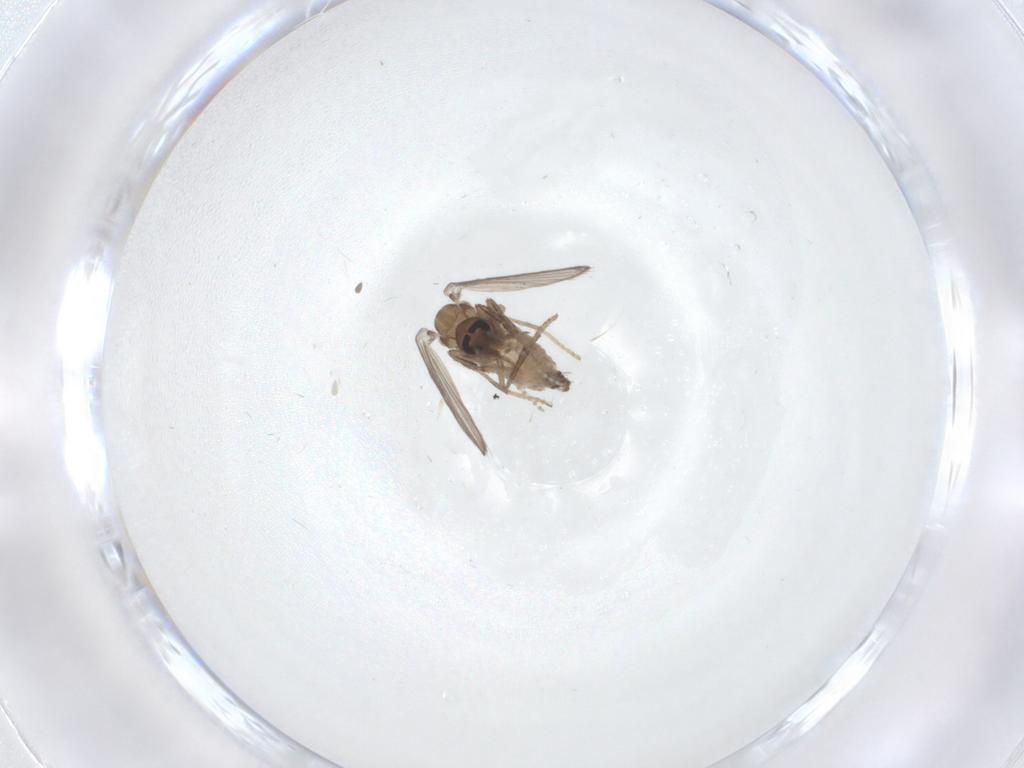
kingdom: Animalia
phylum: Arthropoda
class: Insecta
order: Diptera
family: Psychodidae
